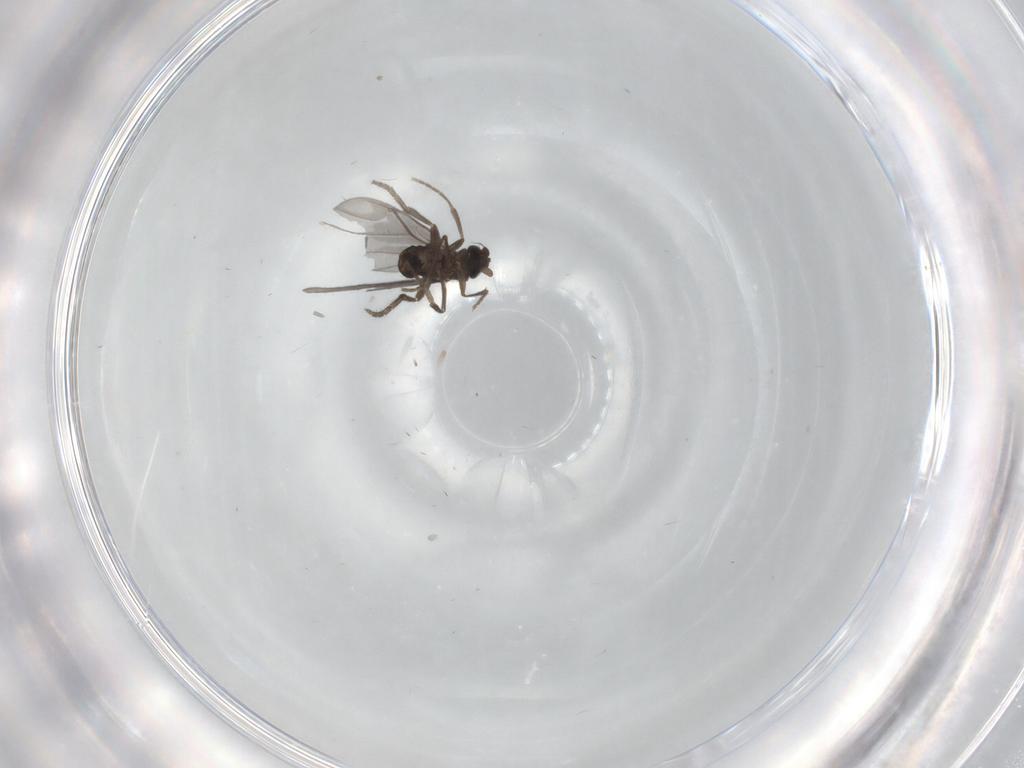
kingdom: Animalia
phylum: Arthropoda
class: Insecta
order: Diptera
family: Phoridae
